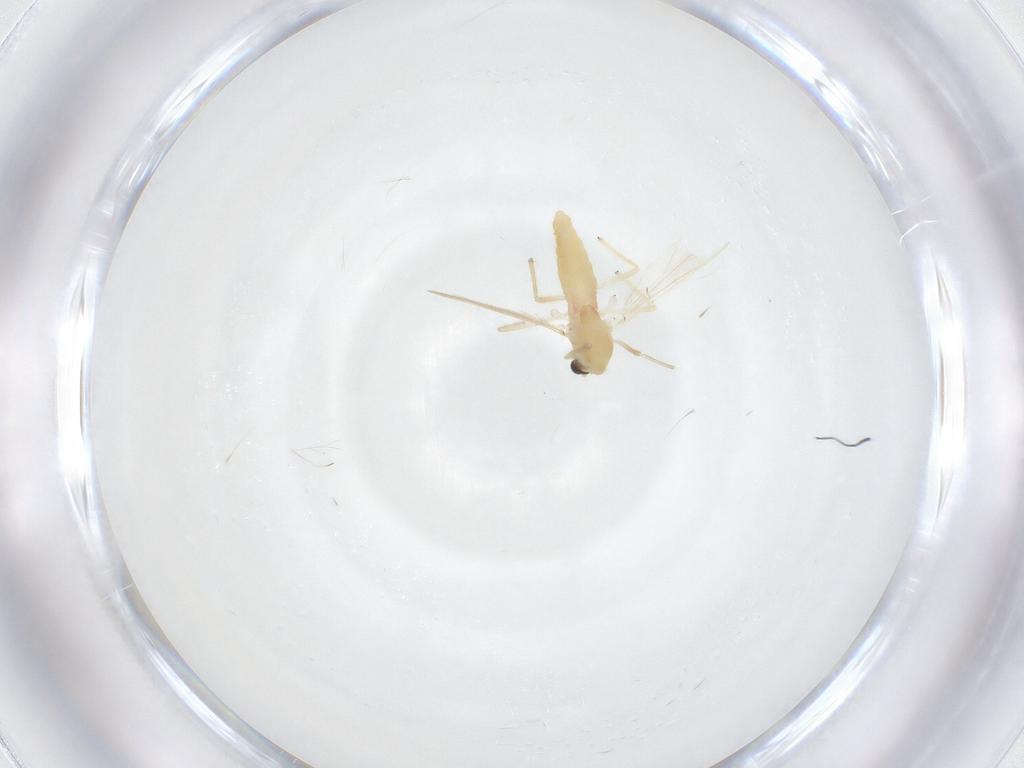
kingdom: Animalia
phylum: Arthropoda
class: Insecta
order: Diptera
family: Chironomidae
